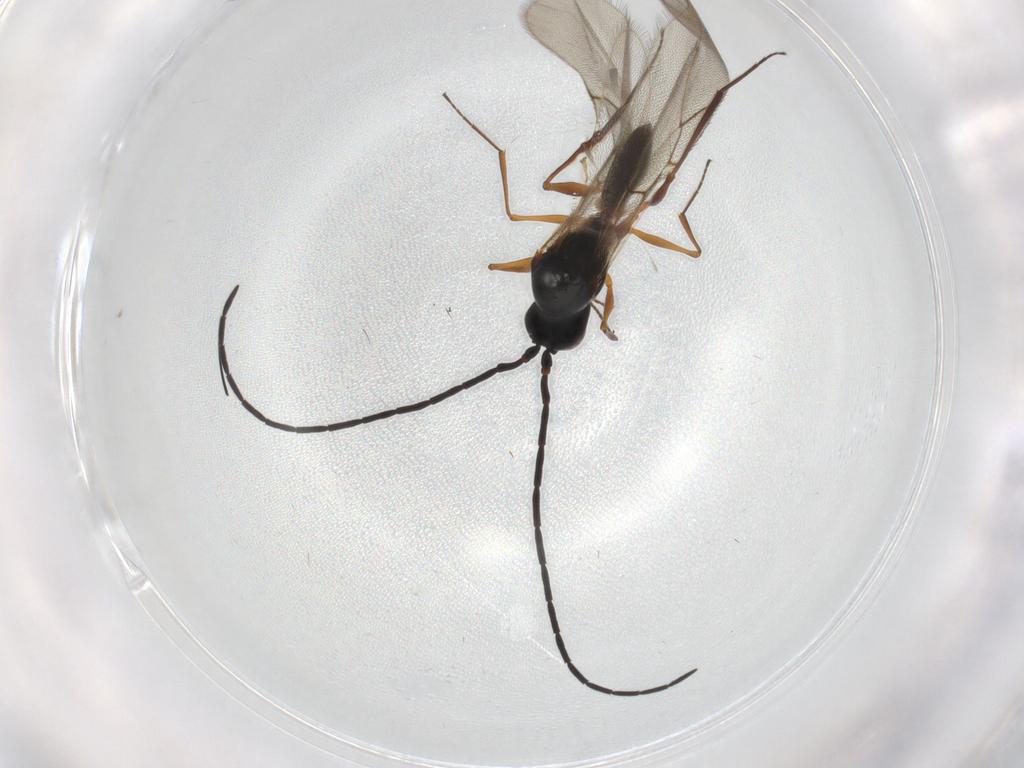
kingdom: Animalia
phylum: Arthropoda
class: Insecta
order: Hymenoptera
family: Figitidae
